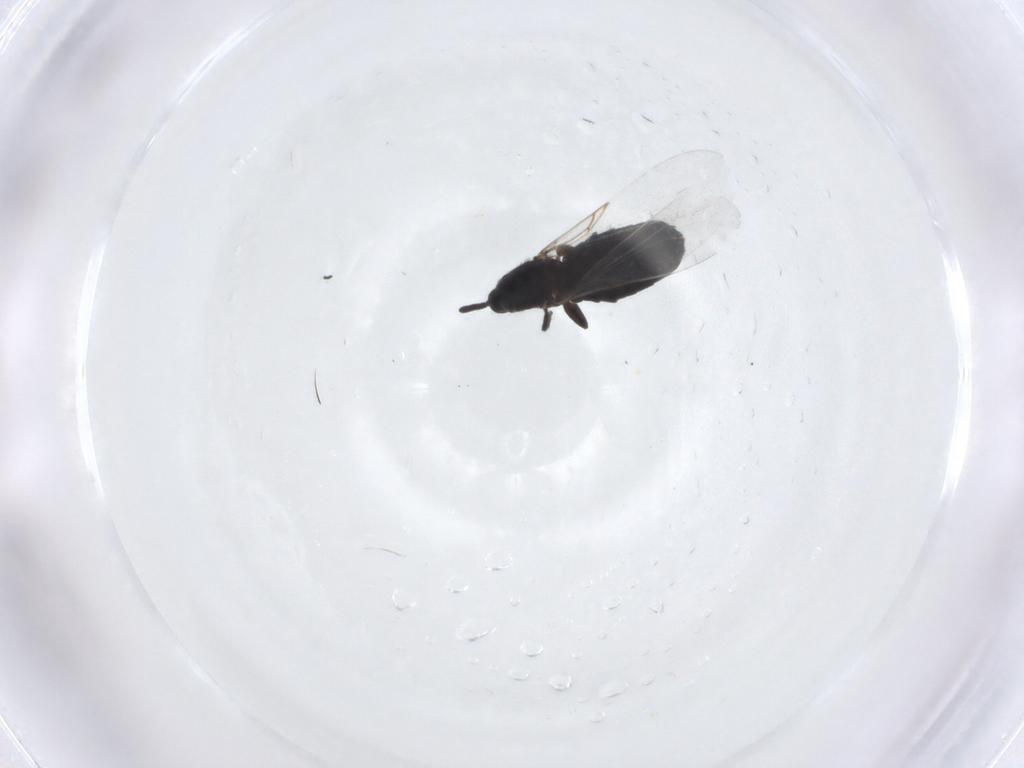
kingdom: Animalia
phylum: Arthropoda
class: Insecta
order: Diptera
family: Scatopsidae
